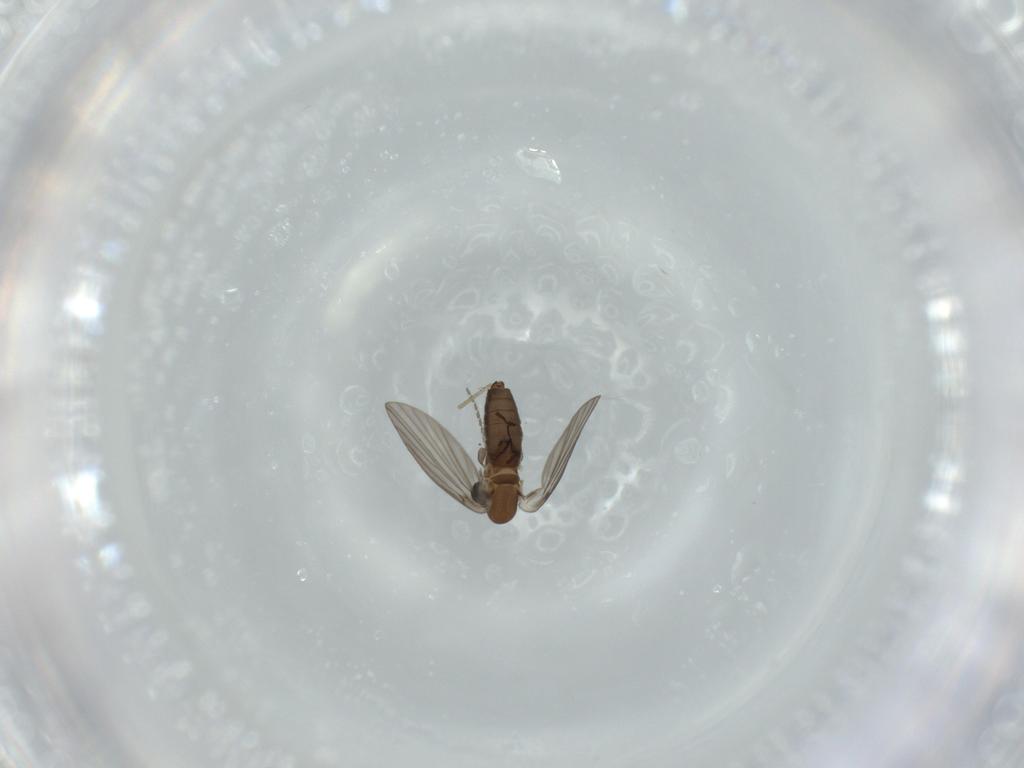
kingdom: Animalia
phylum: Arthropoda
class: Insecta
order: Diptera
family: Psychodidae
